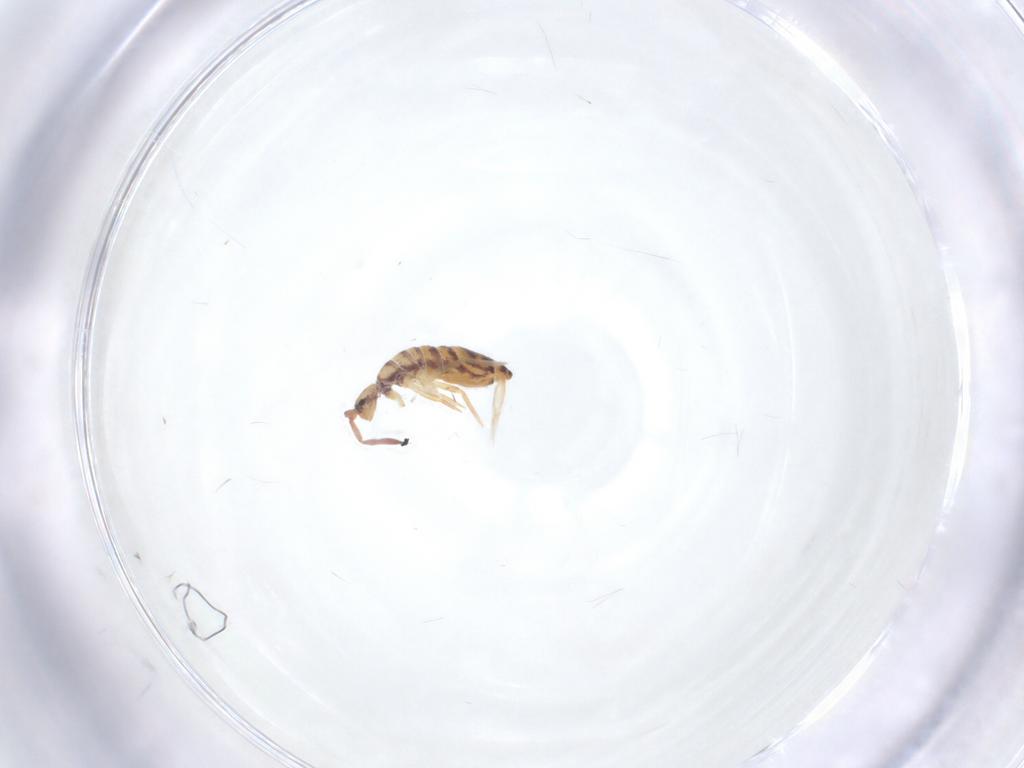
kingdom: Animalia
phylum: Arthropoda
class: Collembola
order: Entomobryomorpha
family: Entomobryidae
